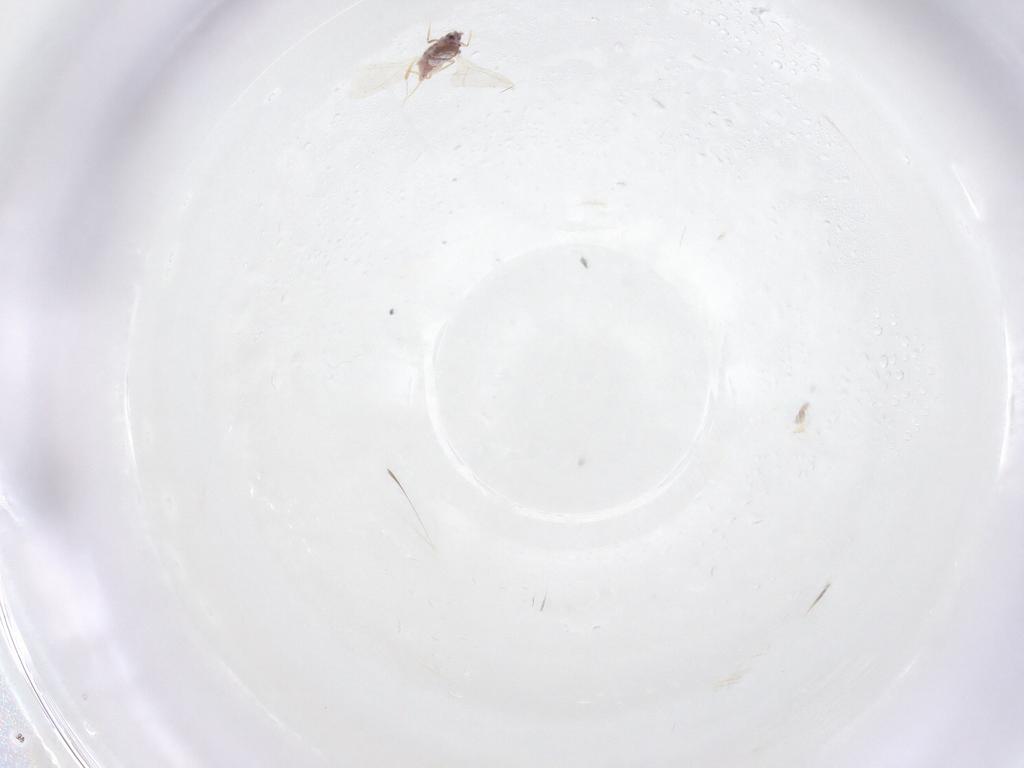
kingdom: Animalia
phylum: Arthropoda
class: Insecta
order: Hemiptera
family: Diaspididae
